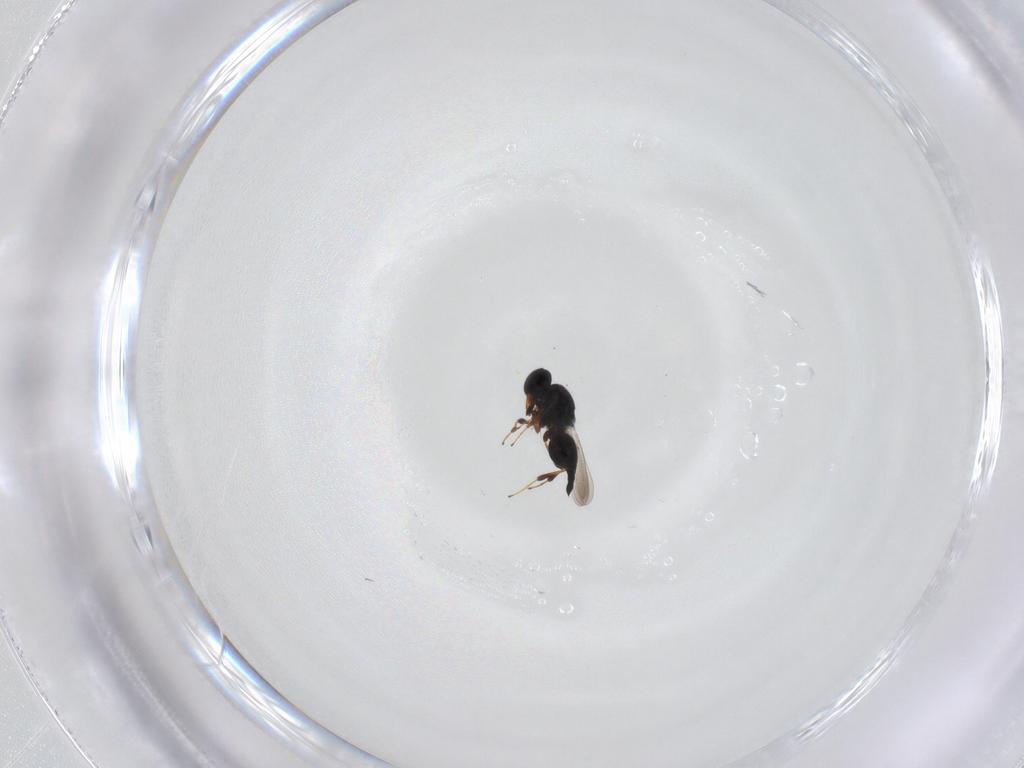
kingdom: Animalia
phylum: Arthropoda
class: Insecta
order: Hymenoptera
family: Platygastridae
